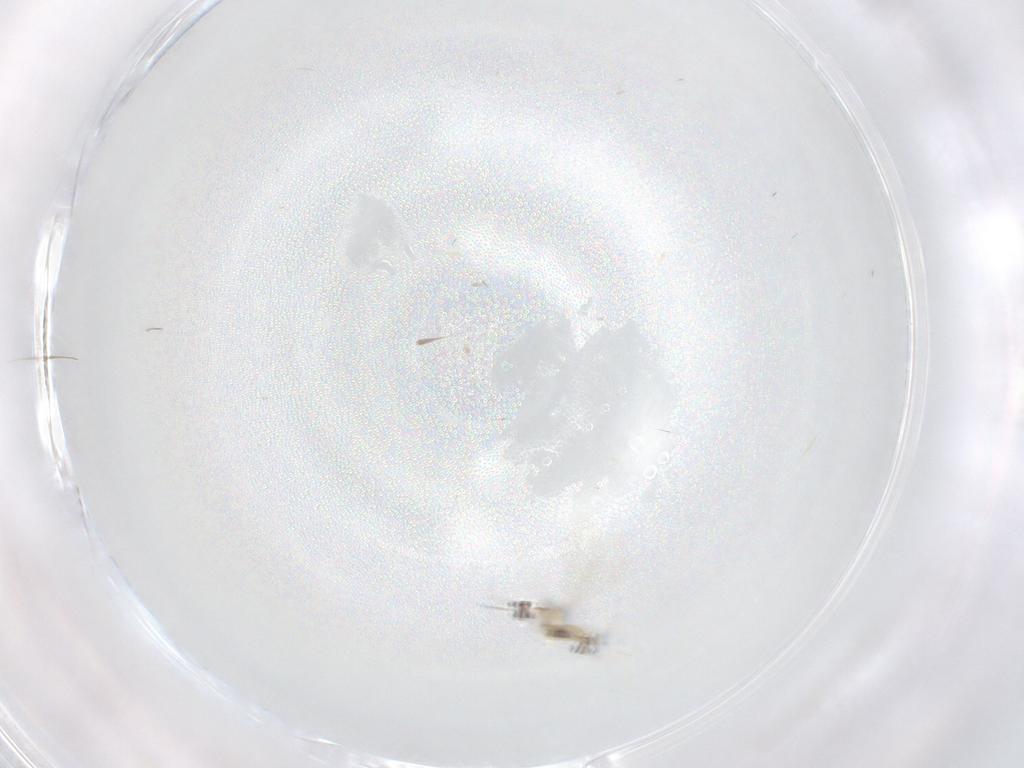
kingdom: Animalia
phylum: Arthropoda
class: Insecta
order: Diptera
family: Cecidomyiidae
